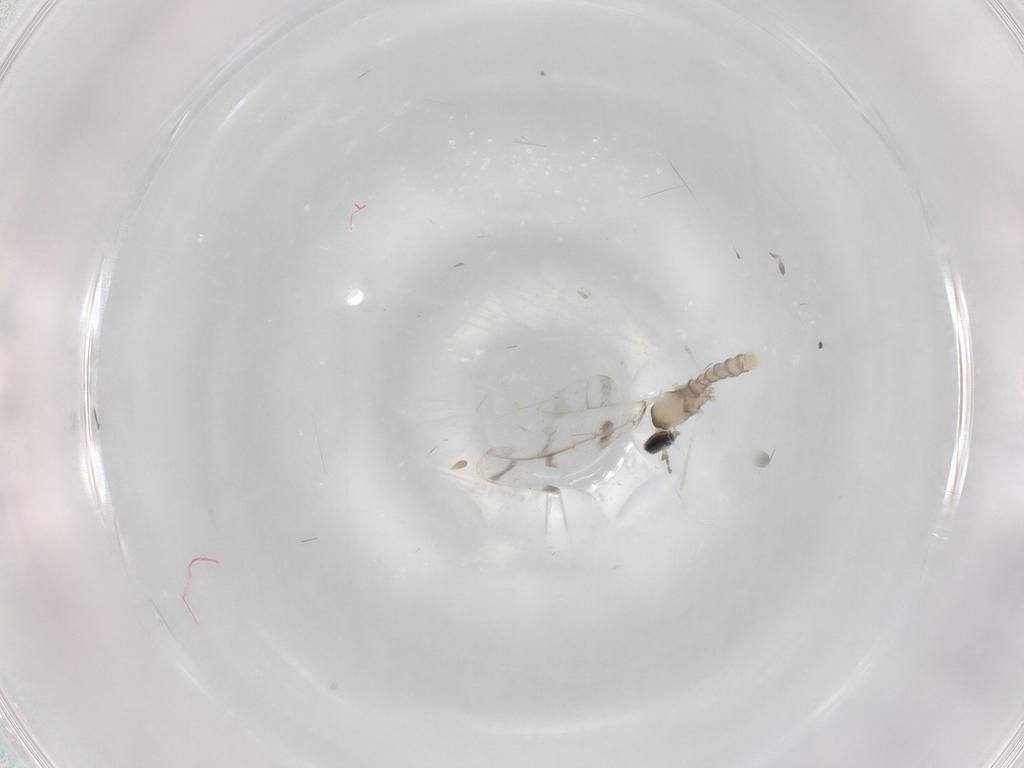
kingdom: Animalia
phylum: Arthropoda
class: Insecta
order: Diptera
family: Cecidomyiidae
